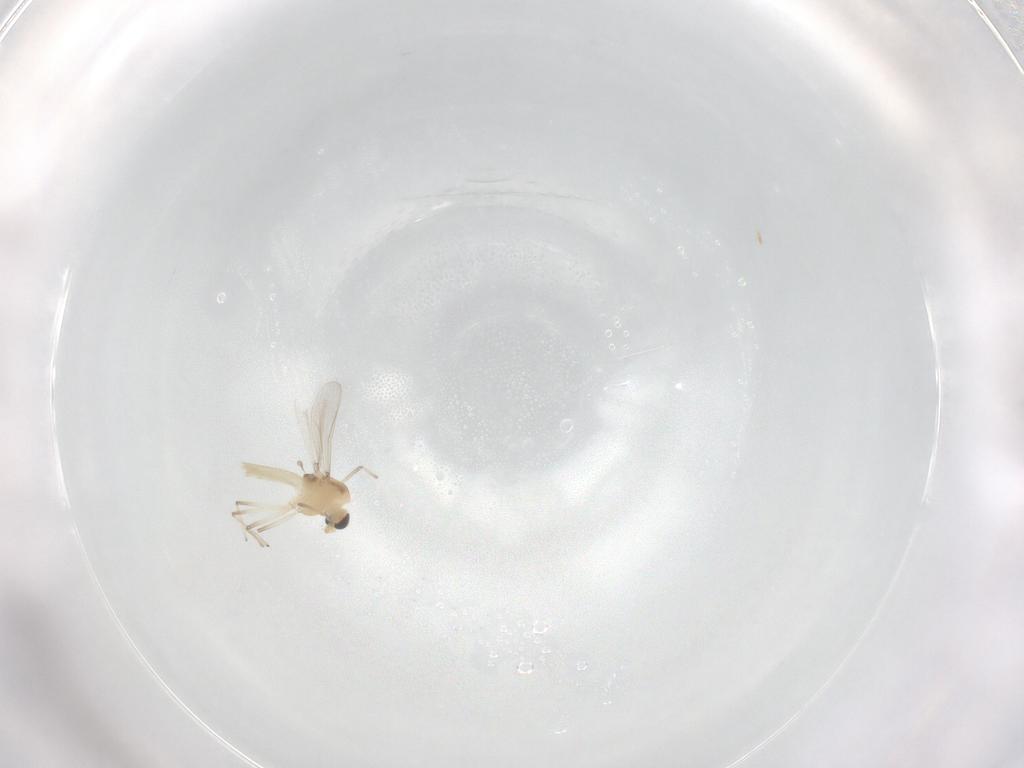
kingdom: Animalia
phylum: Arthropoda
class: Insecta
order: Diptera
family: Chironomidae
